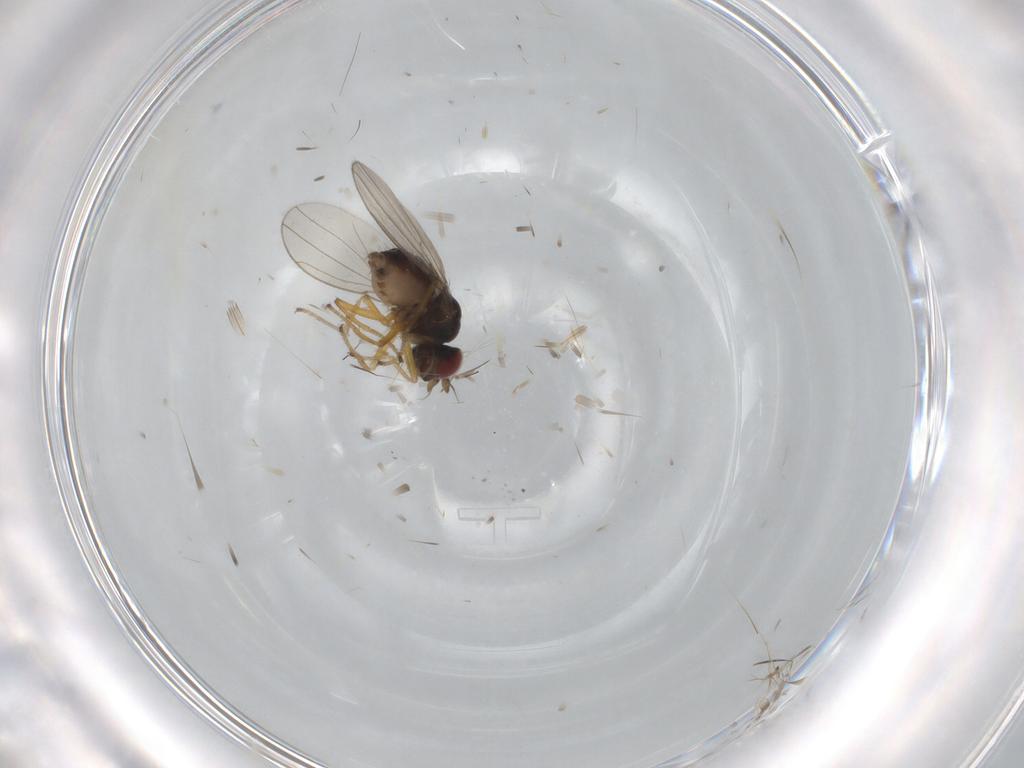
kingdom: Animalia
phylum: Arthropoda
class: Insecta
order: Diptera
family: Ephydridae
